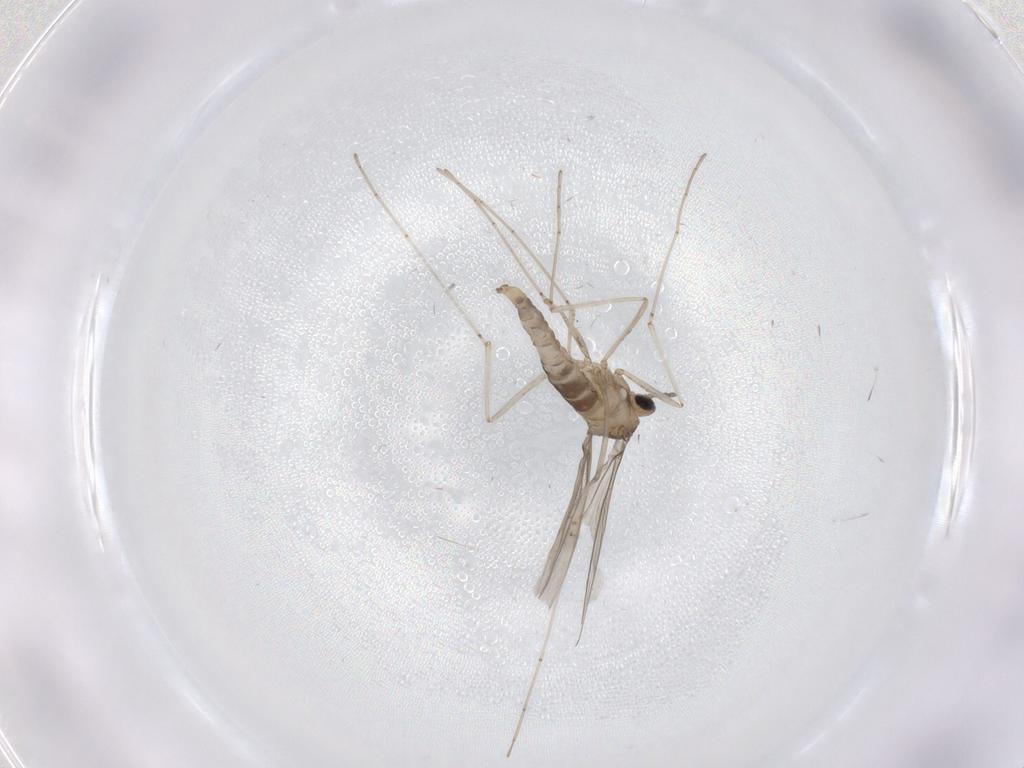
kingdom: Animalia
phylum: Arthropoda
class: Insecta
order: Diptera
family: Cecidomyiidae
